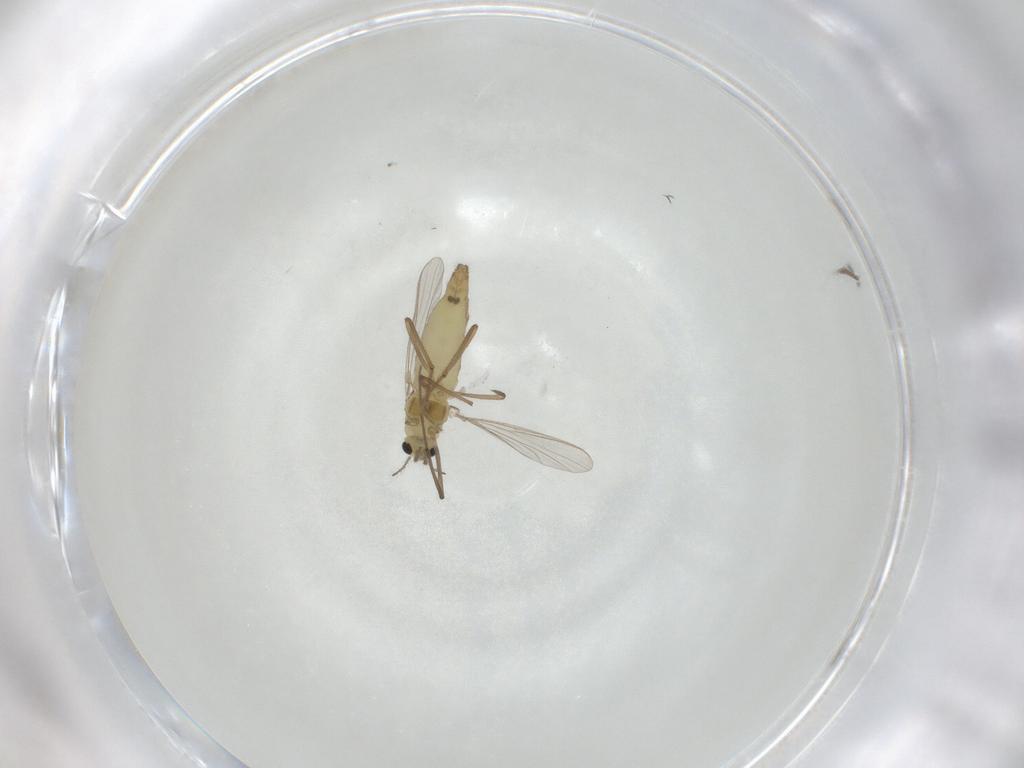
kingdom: Animalia
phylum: Arthropoda
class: Insecta
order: Diptera
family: Chironomidae
